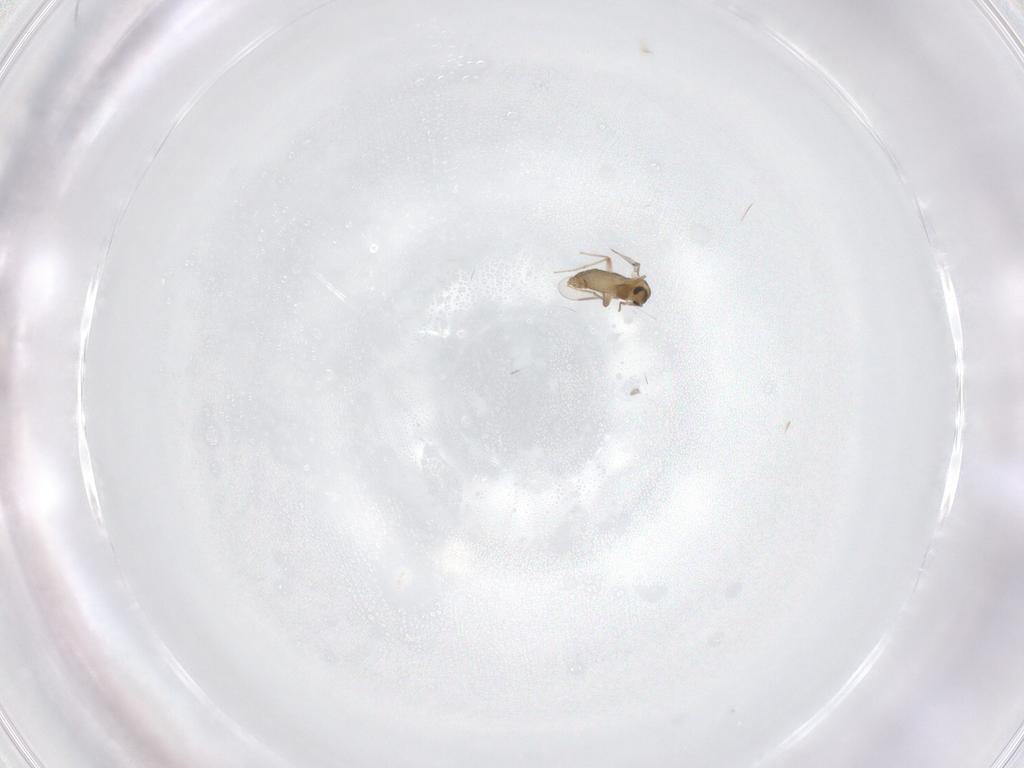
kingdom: Animalia
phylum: Arthropoda
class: Insecta
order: Diptera
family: Chironomidae
